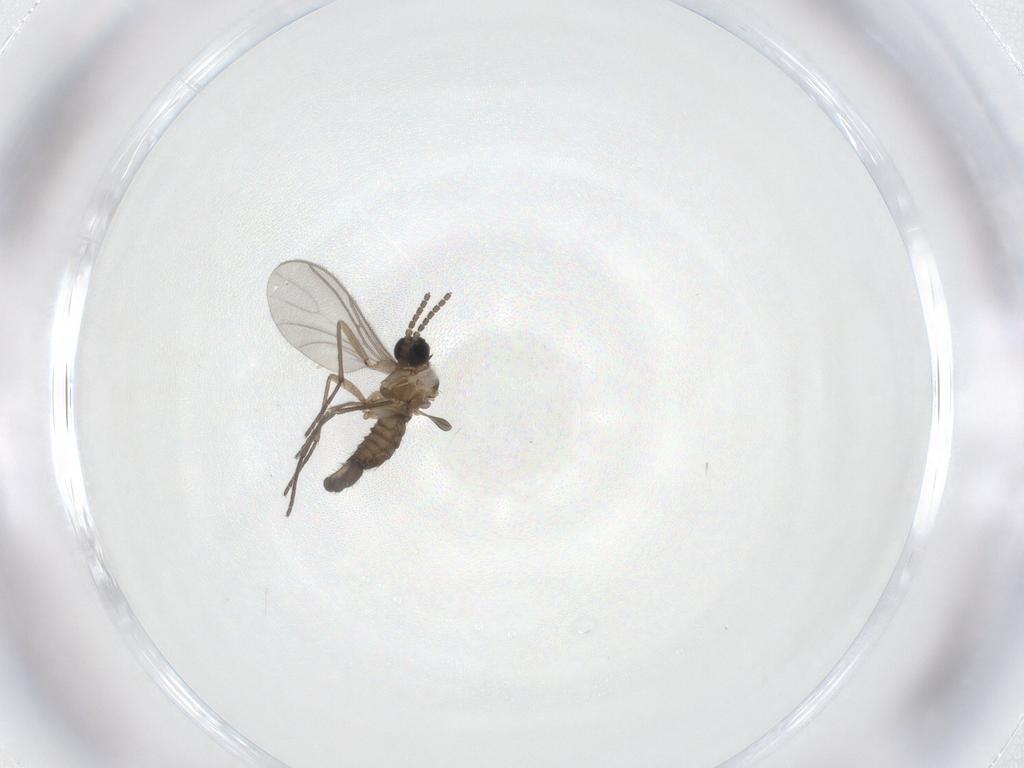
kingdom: Animalia
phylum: Arthropoda
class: Insecta
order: Diptera
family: Sciaridae
